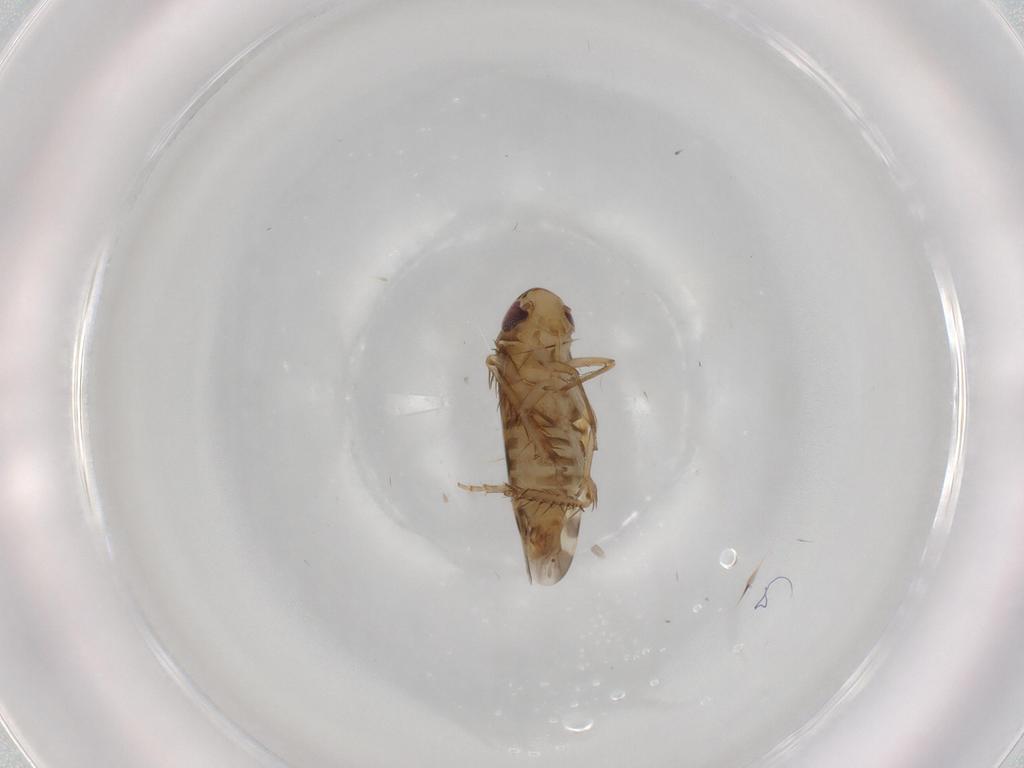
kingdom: Animalia
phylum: Arthropoda
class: Insecta
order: Hemiptera
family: Cicadellidae
